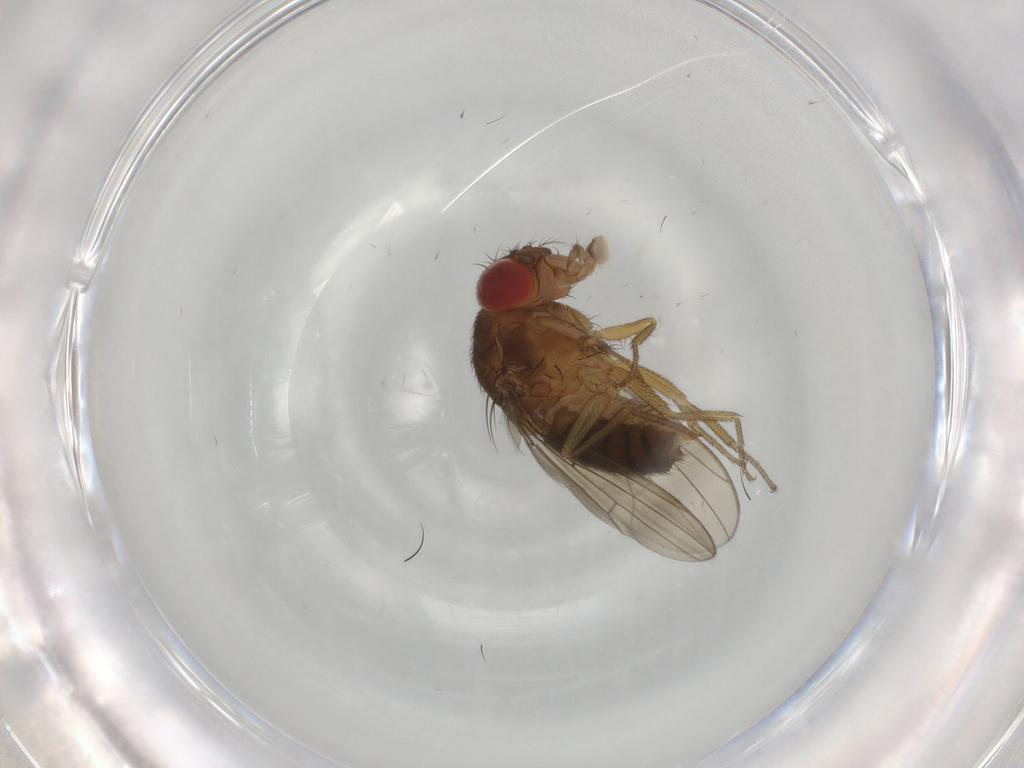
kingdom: Animalia
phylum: Arthropoda
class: Insecta
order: Diptera
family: Drosophilidae
